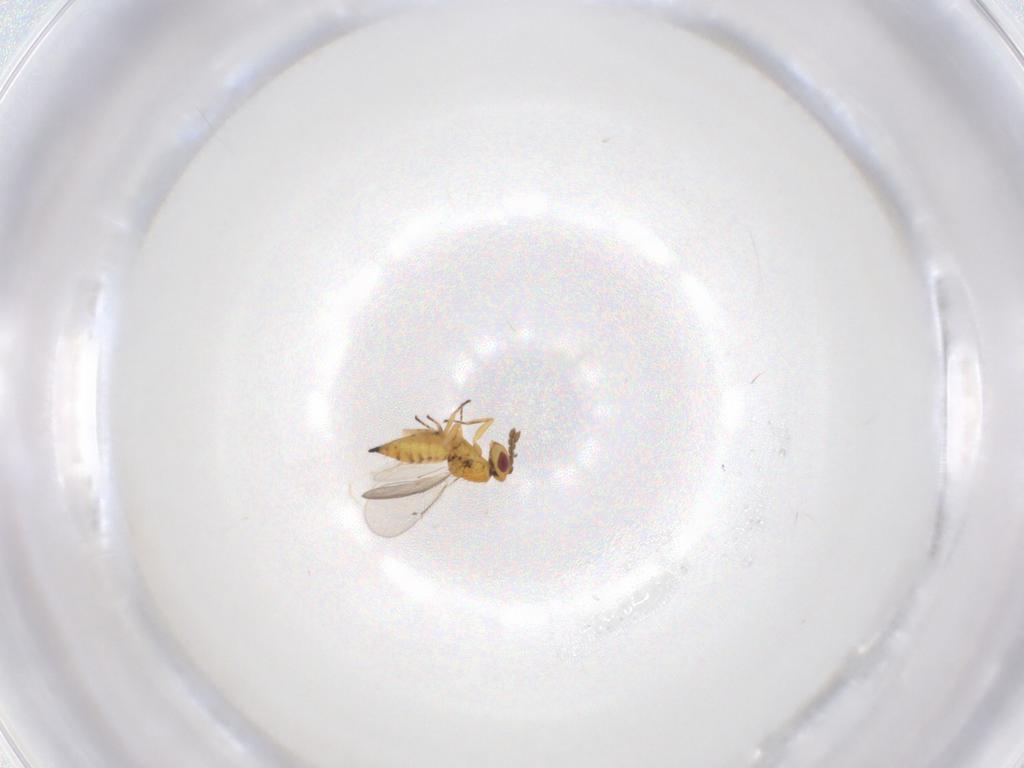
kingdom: Animalia
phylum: Arthropoda
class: Insecta
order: Hymenoptera
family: Eulophidae
